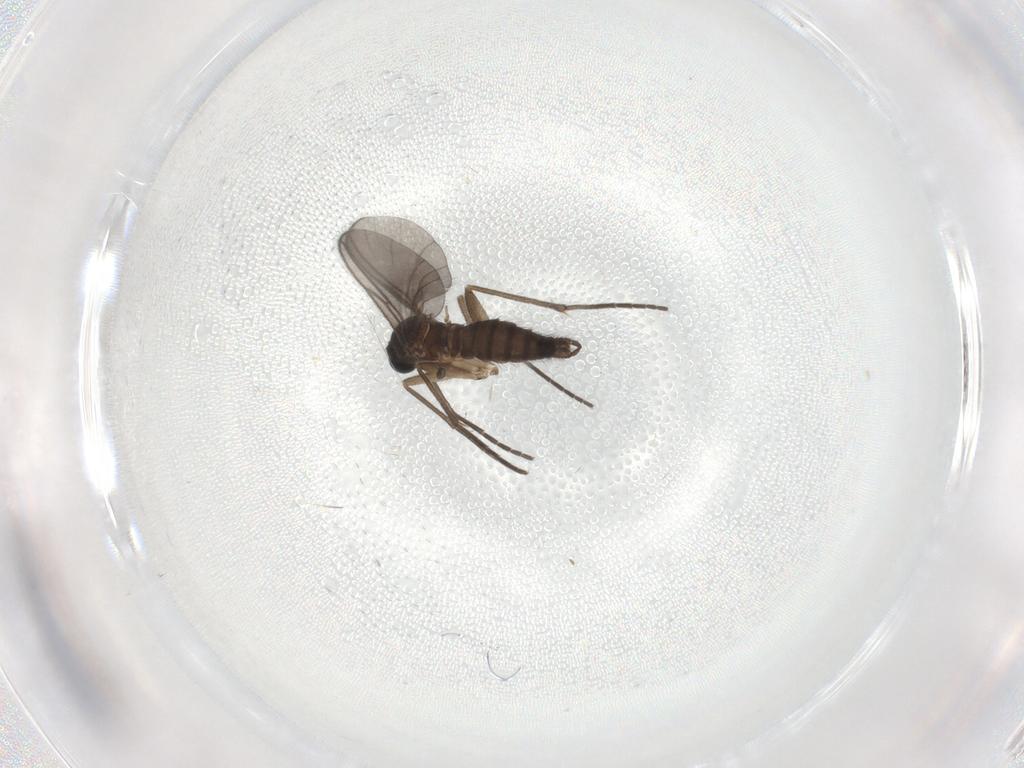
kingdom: Animalia
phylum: Arthropoda
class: Insecta
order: Diptera
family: Sciaridae
